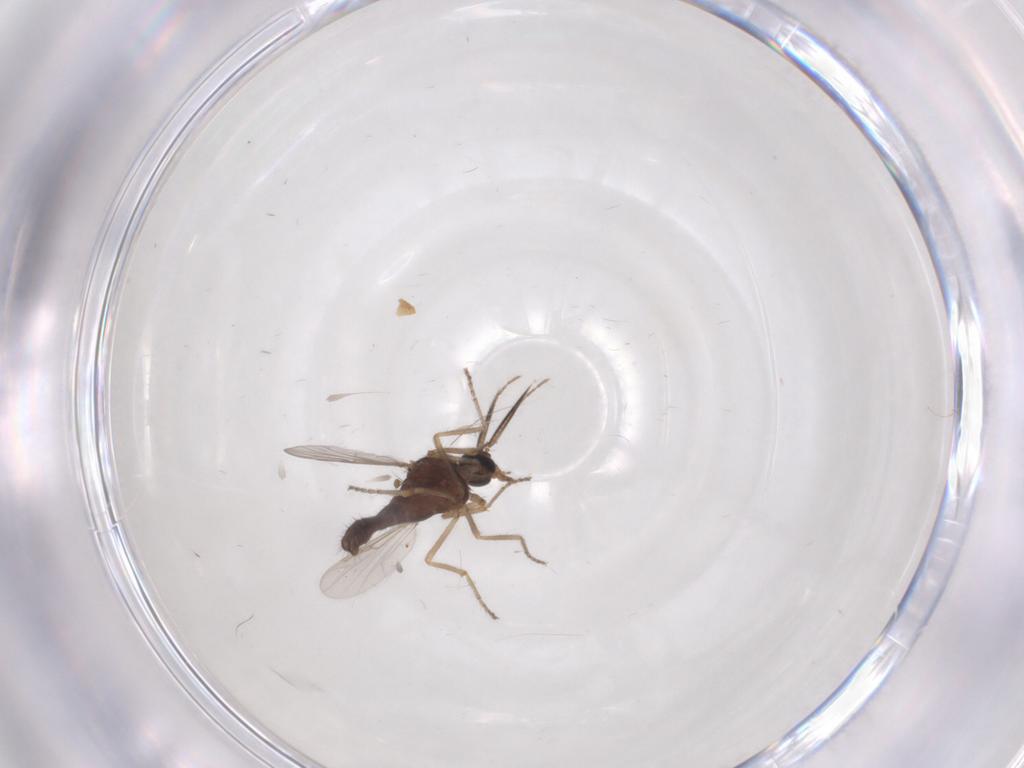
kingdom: Animalia
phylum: Arthropoda
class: Insecta
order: Diptera
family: Ceratopogonidae
